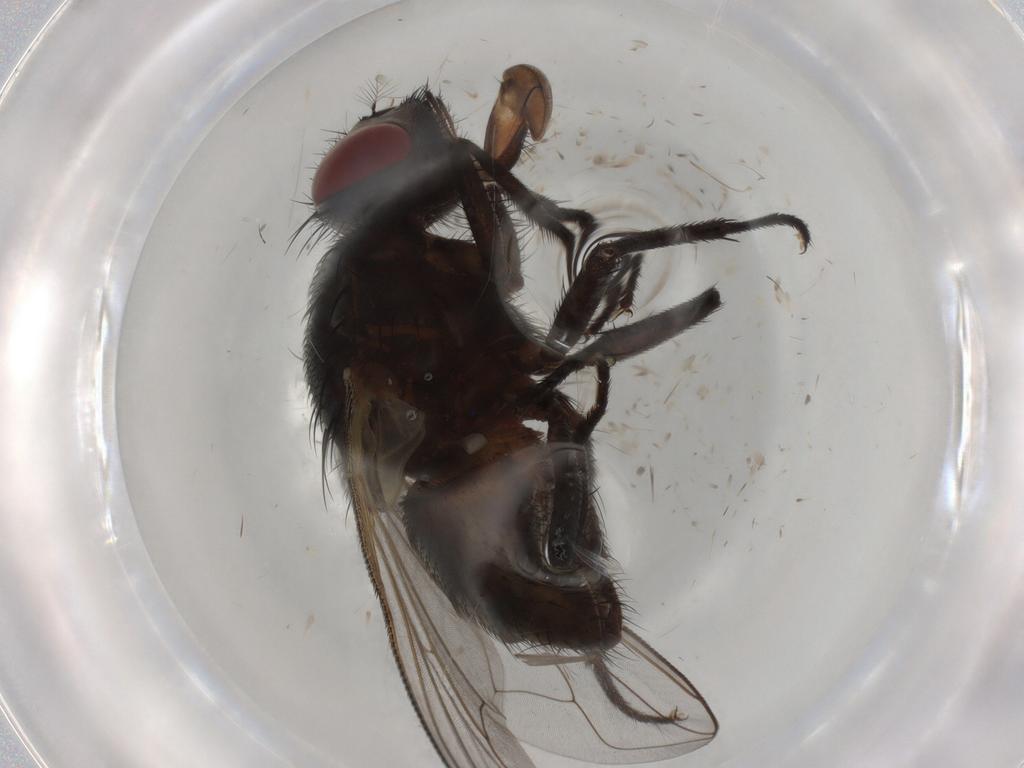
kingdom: Animalia
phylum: Arthropoda
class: Insecta
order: Diptera
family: Muscidae
